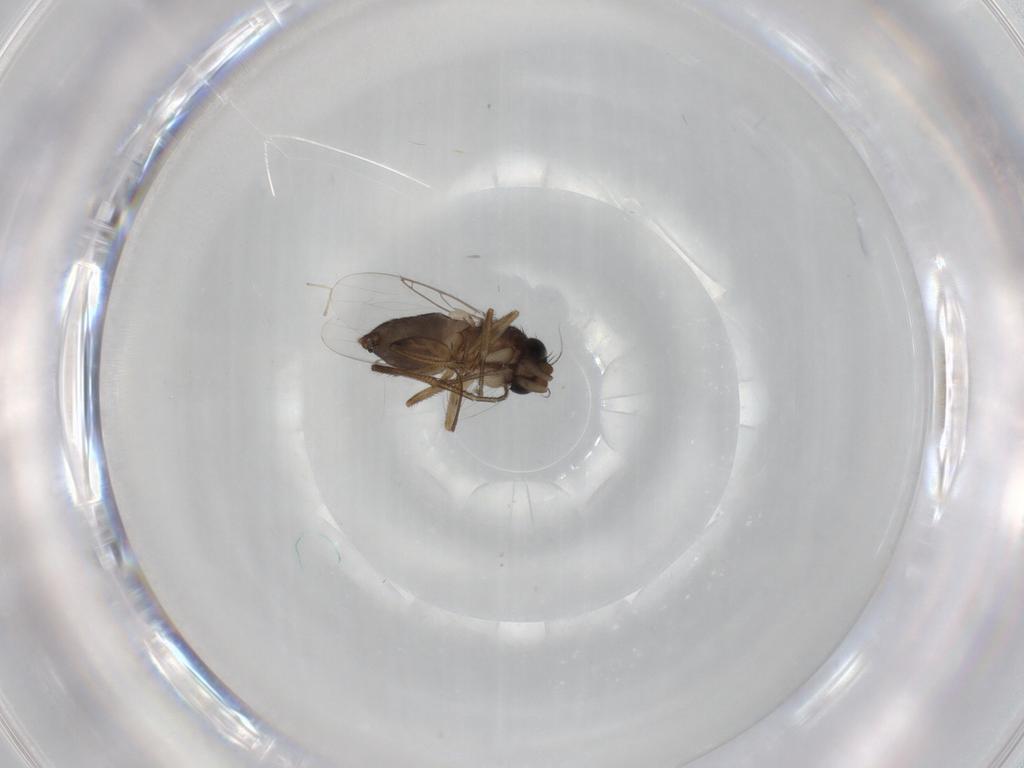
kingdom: Animalia
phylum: Arthropoda
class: Insecta
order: Diptera
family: Phoridae
